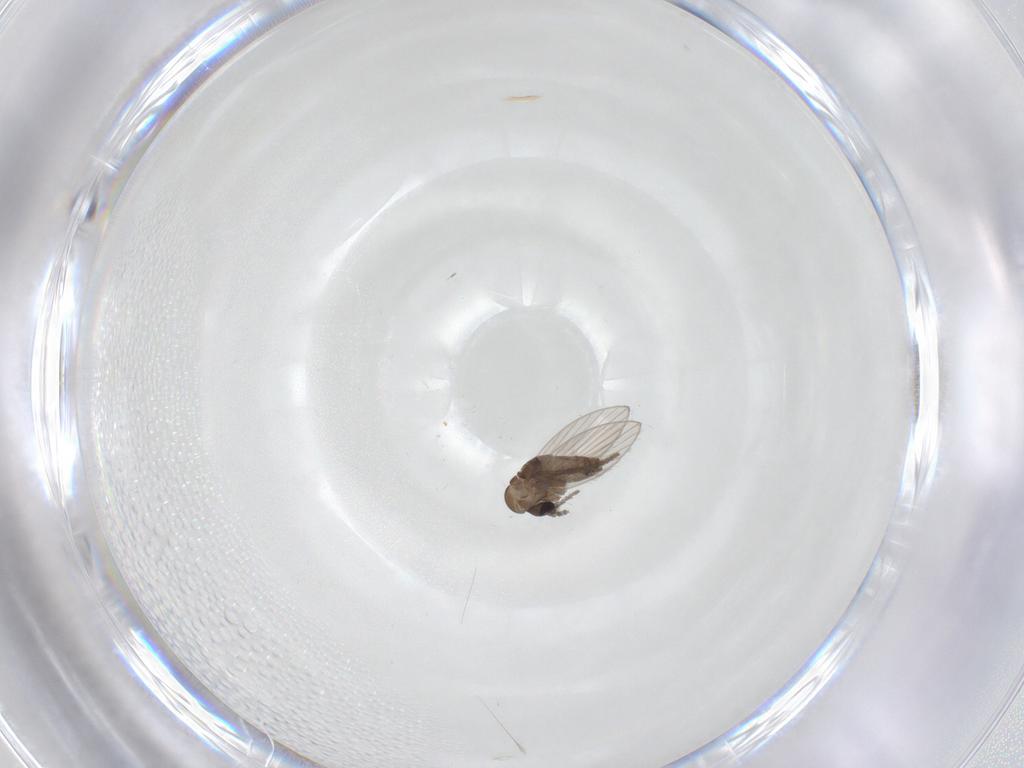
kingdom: Animalia
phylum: Arthropoda
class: Insecta
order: Diptera
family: Psychodidae
